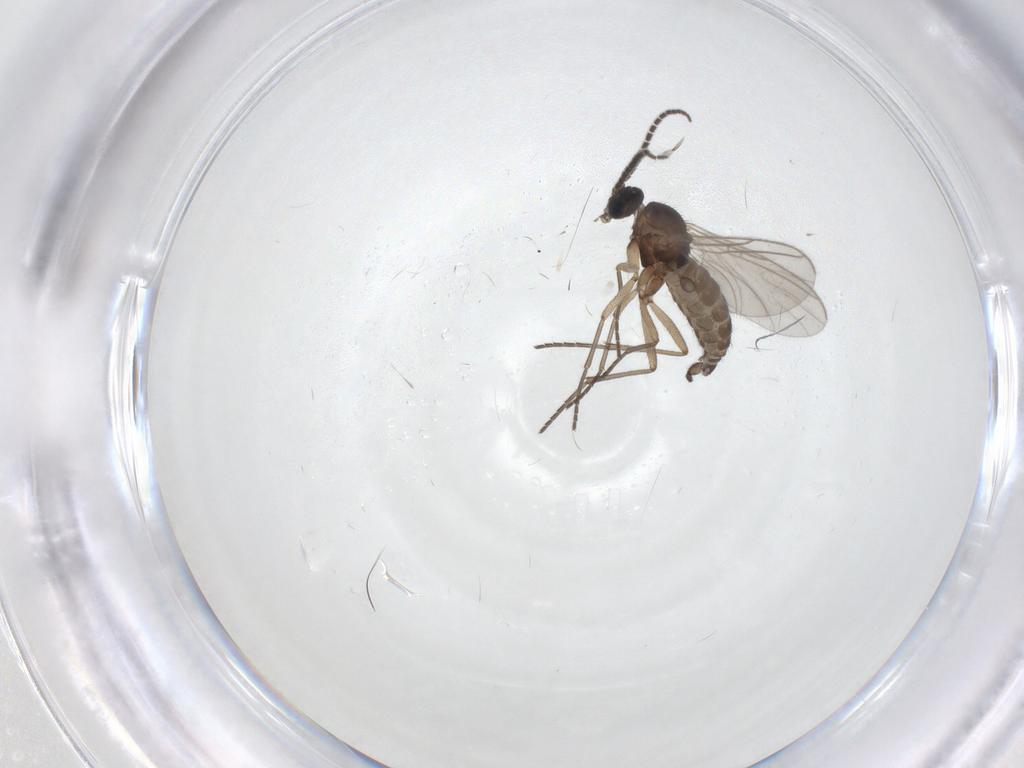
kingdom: Animalia
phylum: Arthropoda
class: Insecta
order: Diptera
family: Sciaridae
